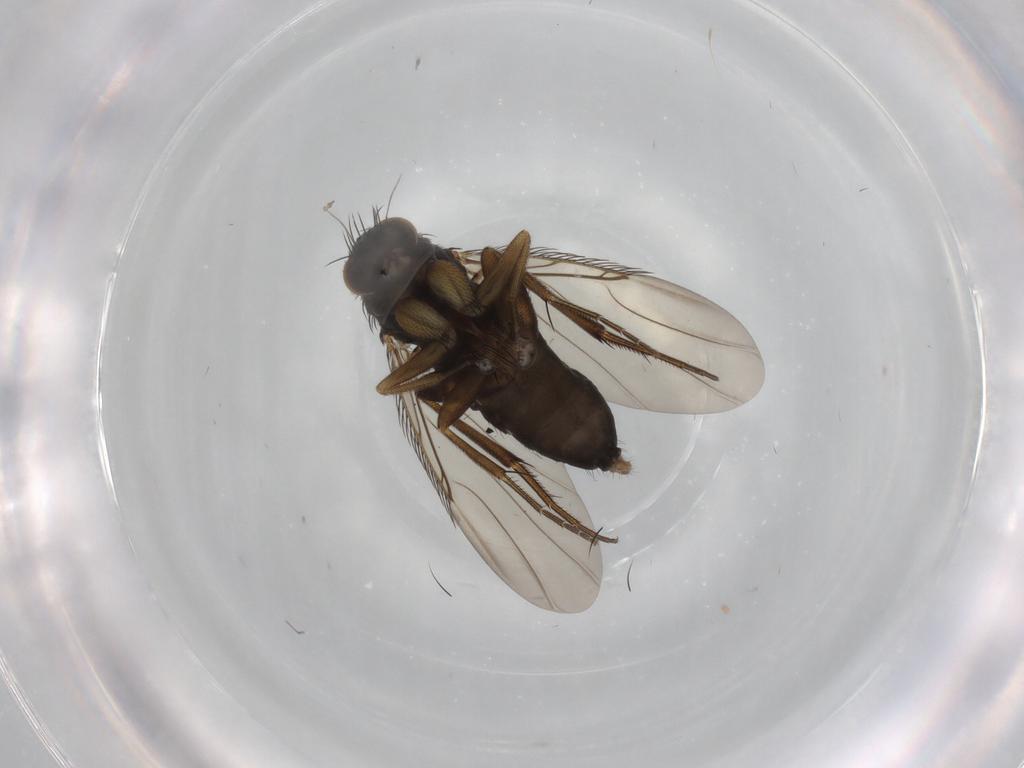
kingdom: Animalia
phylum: Arthropoda
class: Insecta
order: Diptera
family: Phoridae
